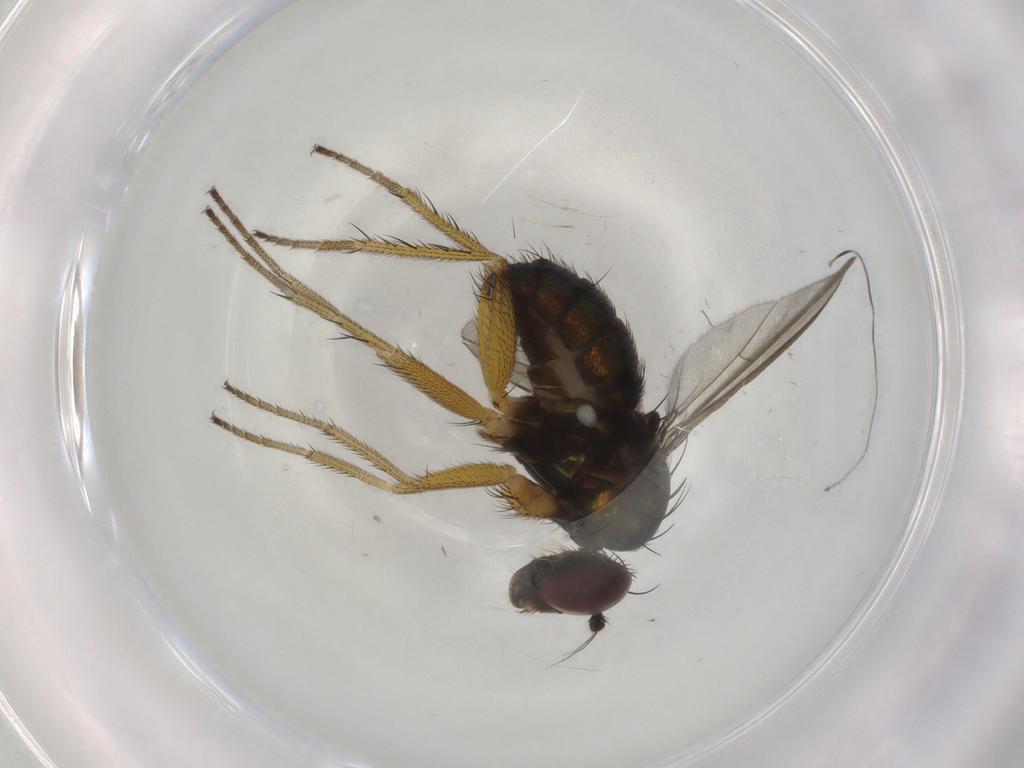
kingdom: Animalia
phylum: Arthropoda
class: Insecta
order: Diptera
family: Dolichopodidae
